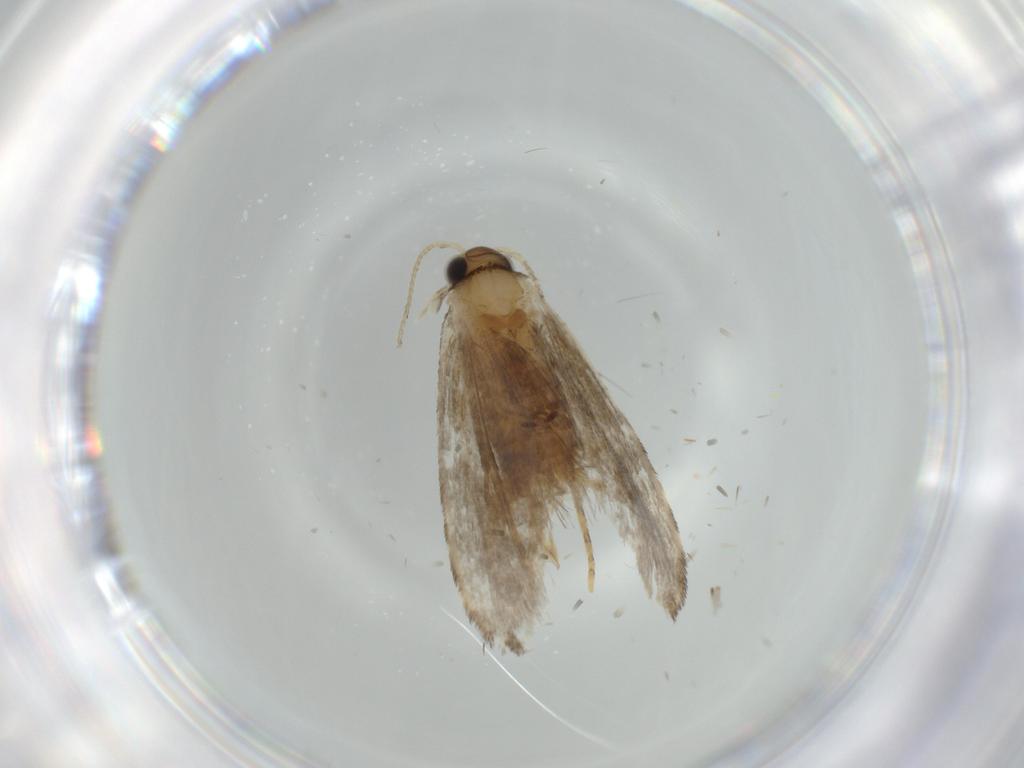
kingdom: Animalia
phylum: Arthropoda
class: Insecta
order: Lepidoptera
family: Tineidae
